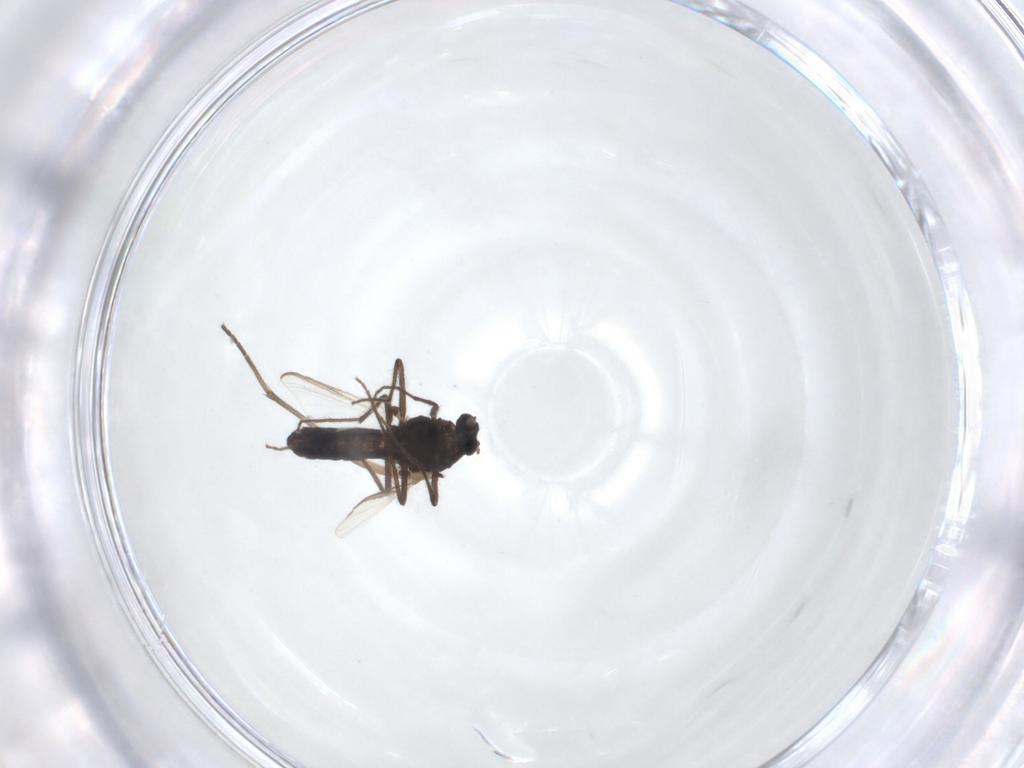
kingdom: Animalia
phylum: Arthropoda
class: Insecta
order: Diptera
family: Chironomidae
